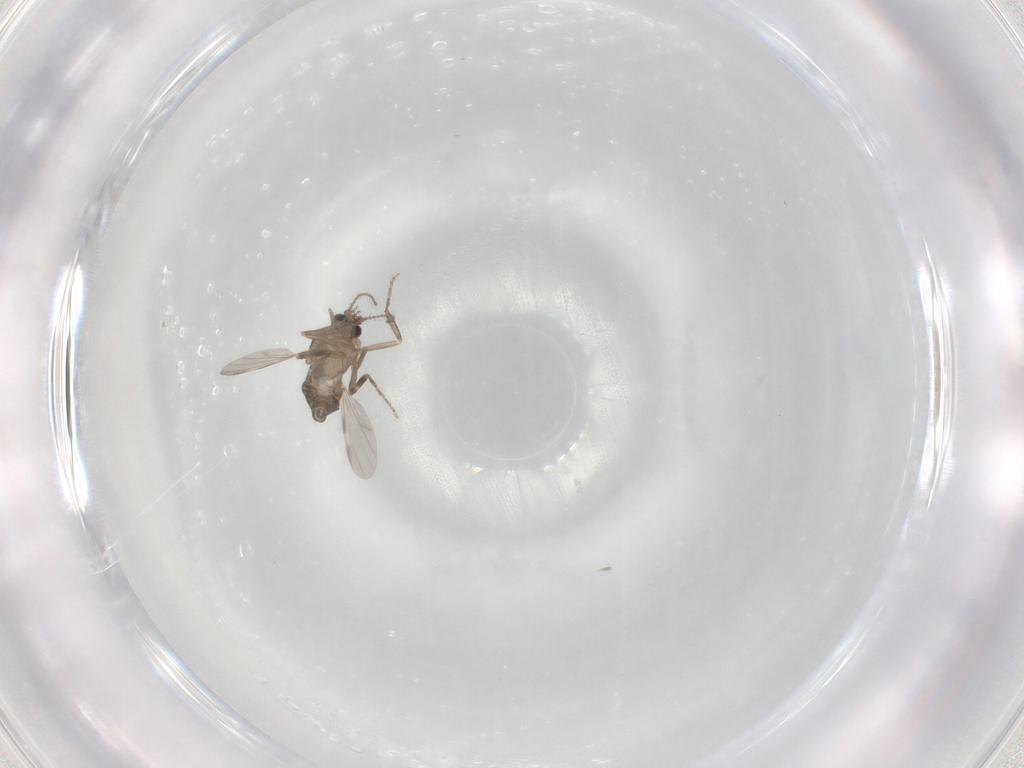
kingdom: Animalia
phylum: Arthropoda
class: Insecta
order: Diptera
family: Ceratopogonidae
